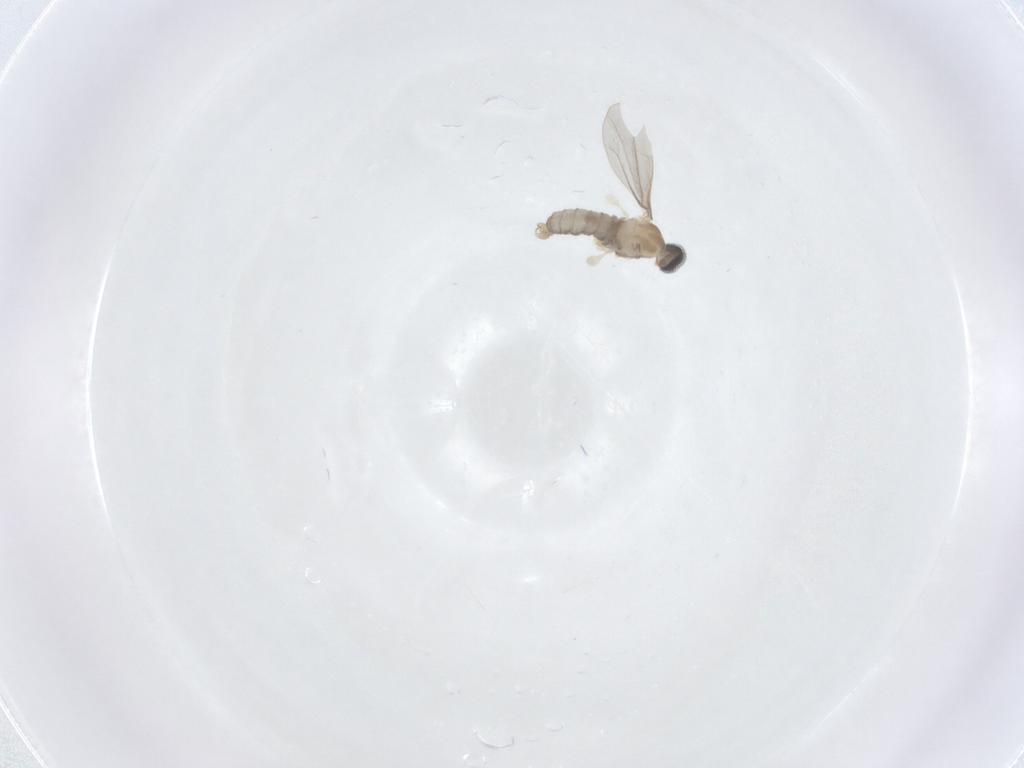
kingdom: Animalia
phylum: Arthropoda
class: Insecta
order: Diptera
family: Cecidomyiidae
